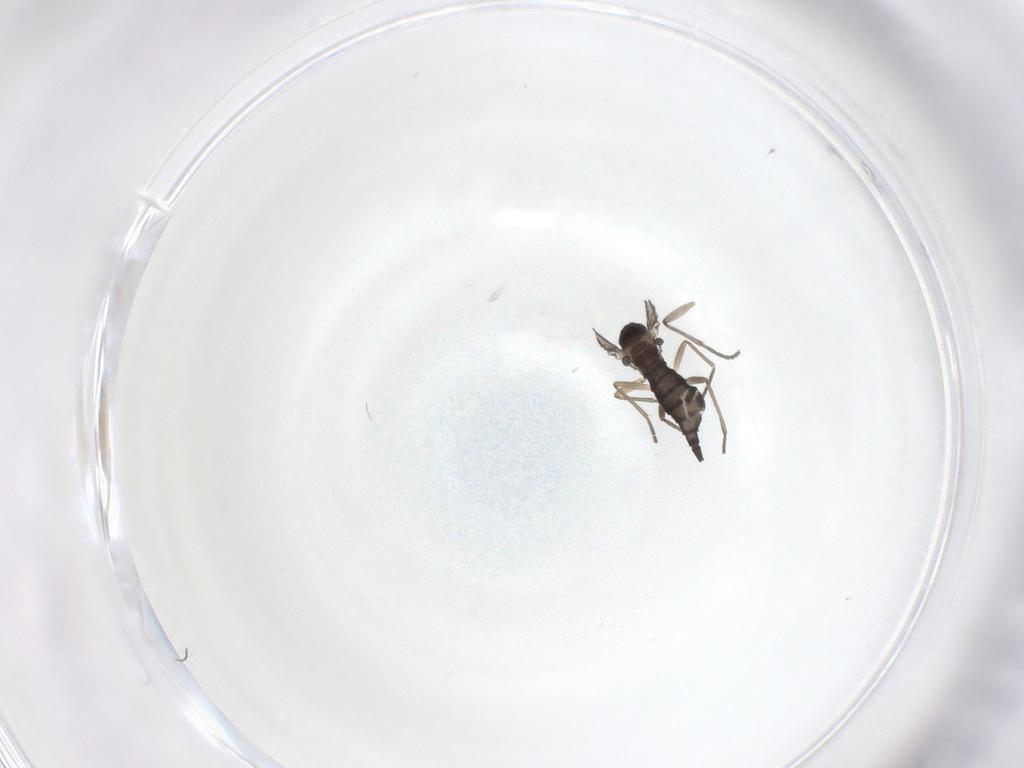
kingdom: Animalia
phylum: Arthropoda
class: Insecta
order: Diptera
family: Sciaridae
